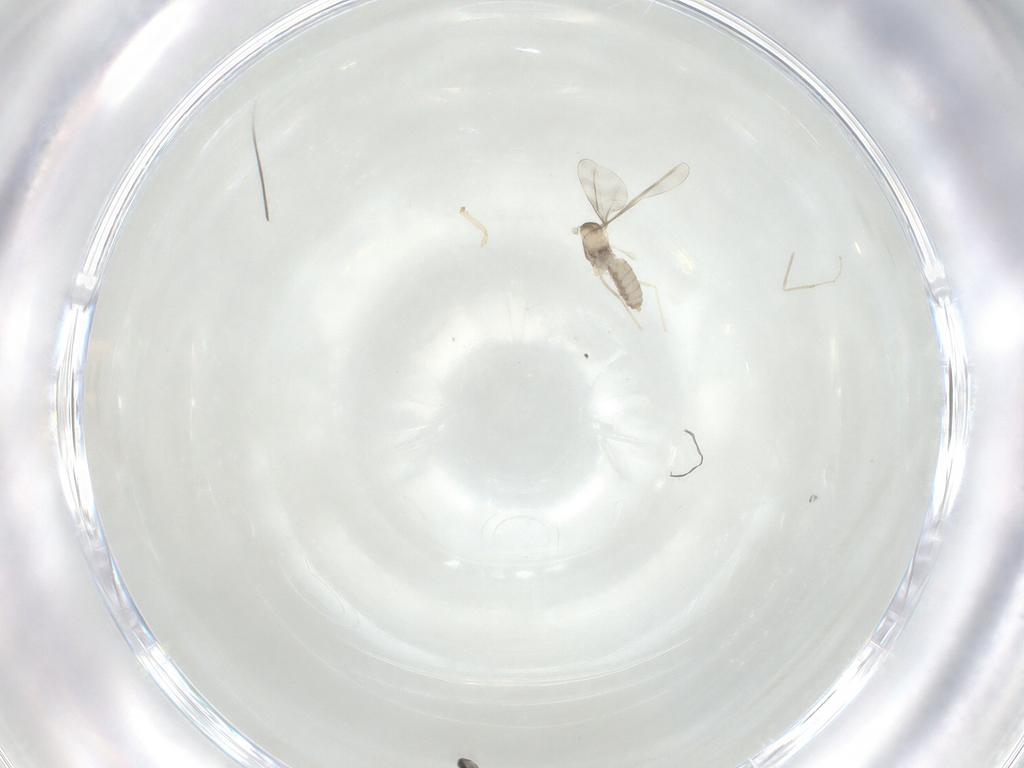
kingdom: Animalia
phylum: Arthropoda
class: Insecta
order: Diptera
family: Cecidomyiidae
